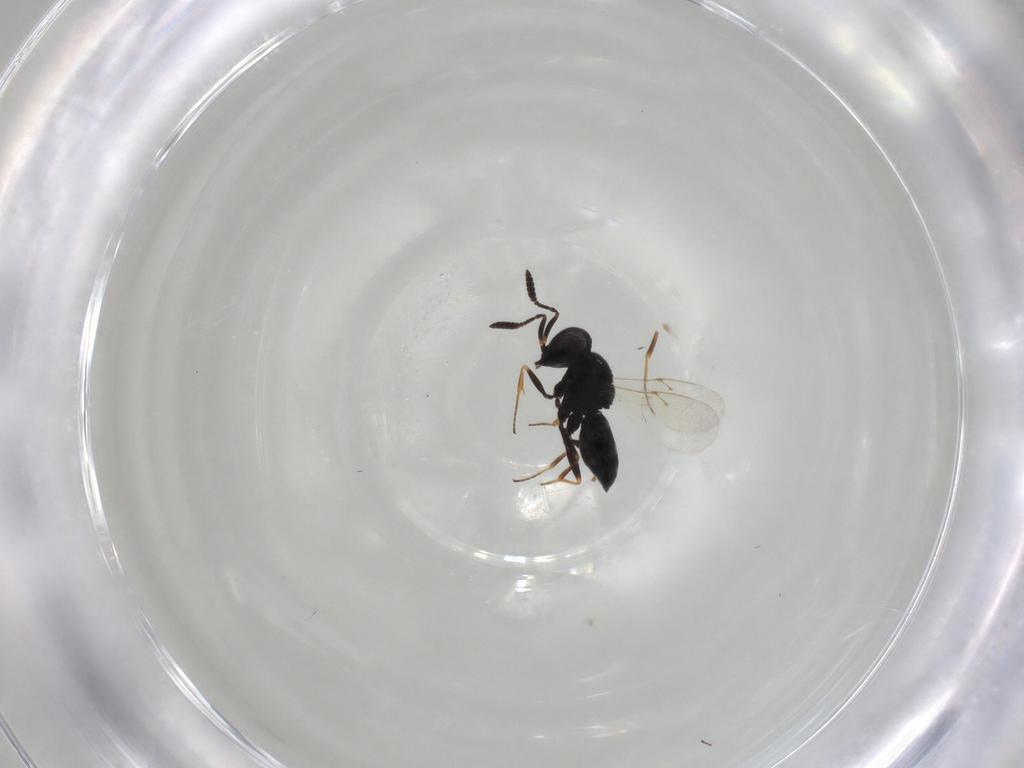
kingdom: Animalia
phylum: Arthropoda
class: Insecta
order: Hymenoptera
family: Scelionidae
